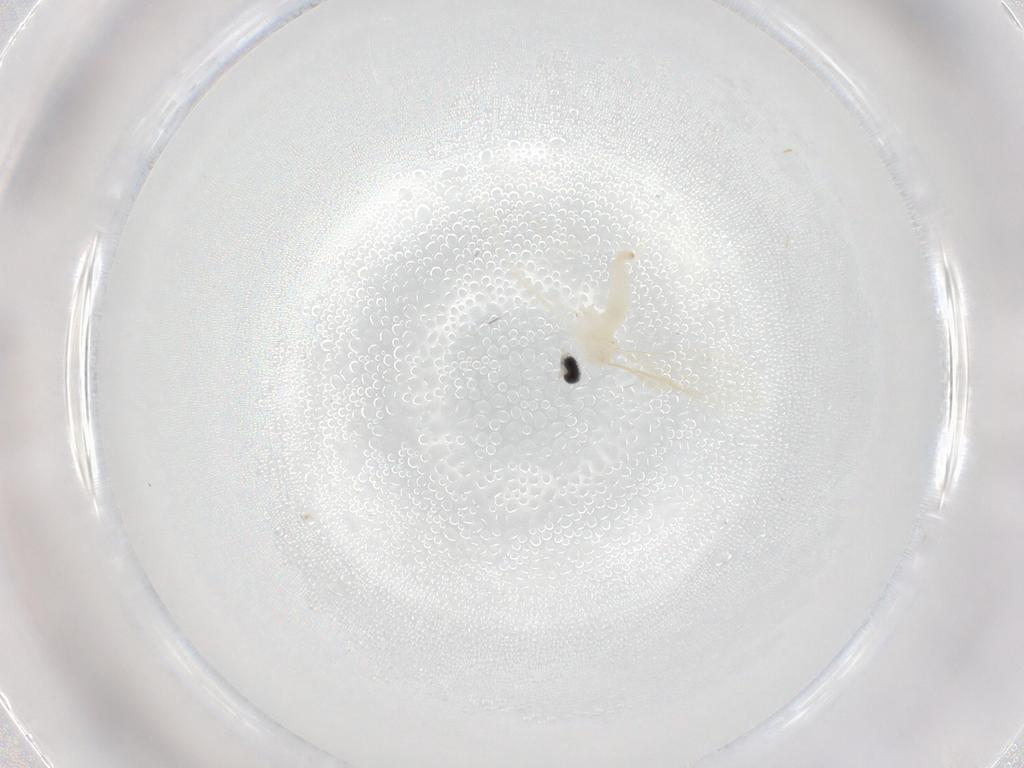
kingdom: Animalia
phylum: Arthropoda
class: Insecta
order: Diptera
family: Phoridae
